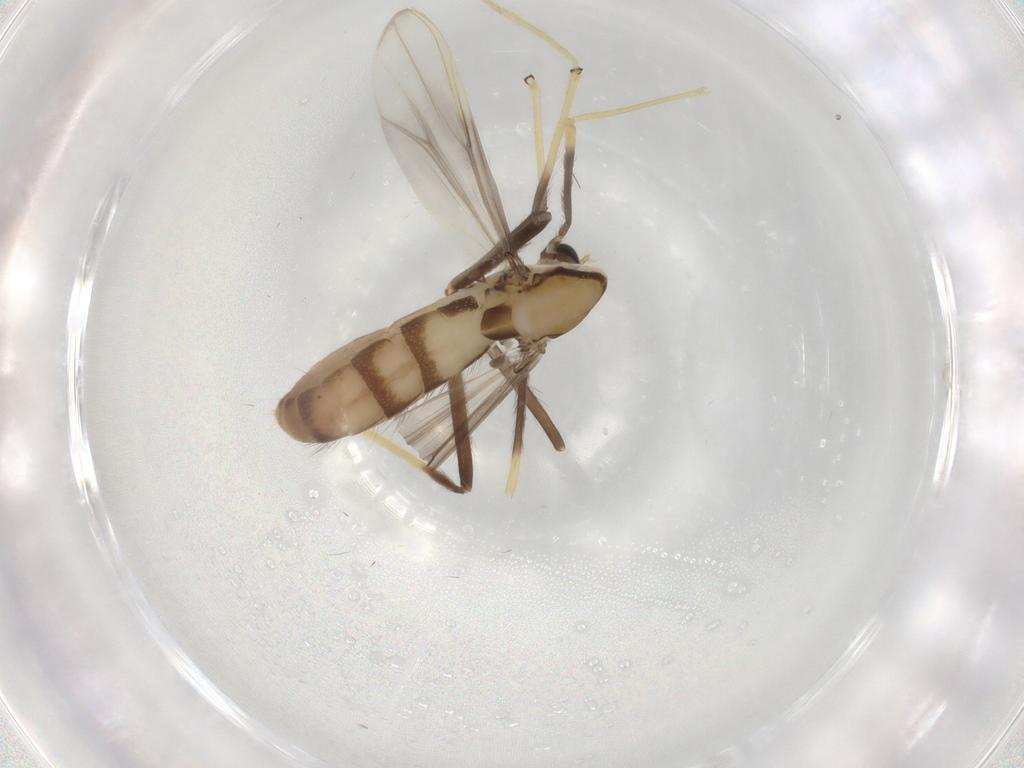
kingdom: Animalia
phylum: Arthropoda
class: Insecta
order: Diptera
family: Chironomidae
